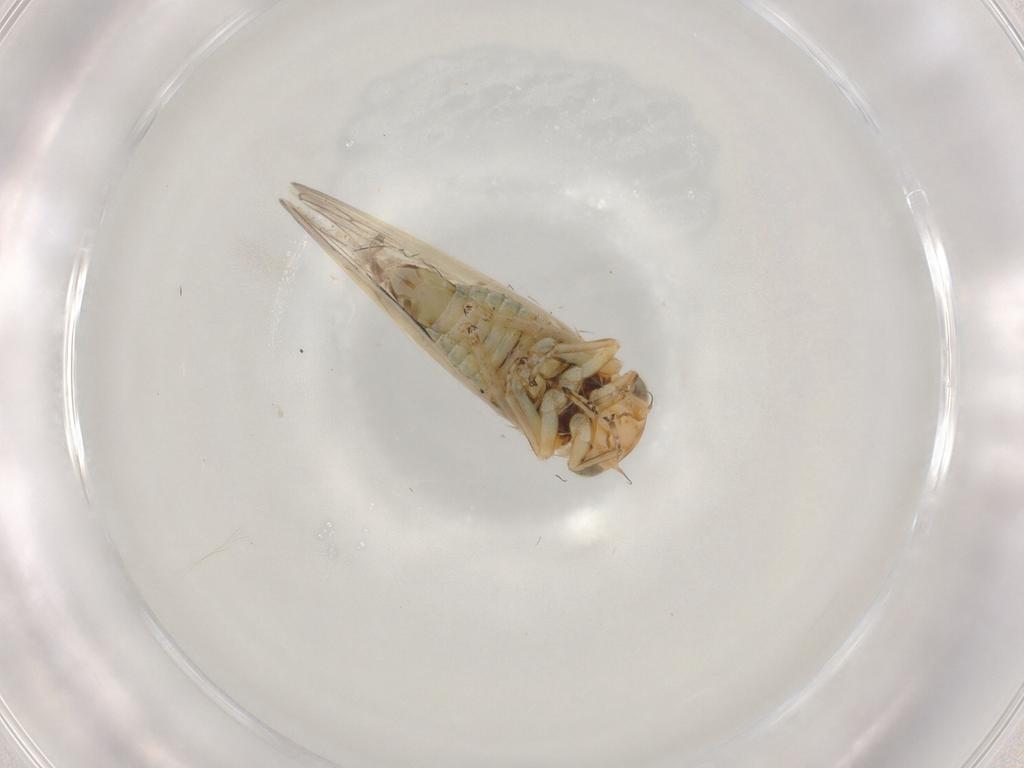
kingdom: Animalia
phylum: Arthropoda
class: Insecta
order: Hemiptera
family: Cicadellidae
